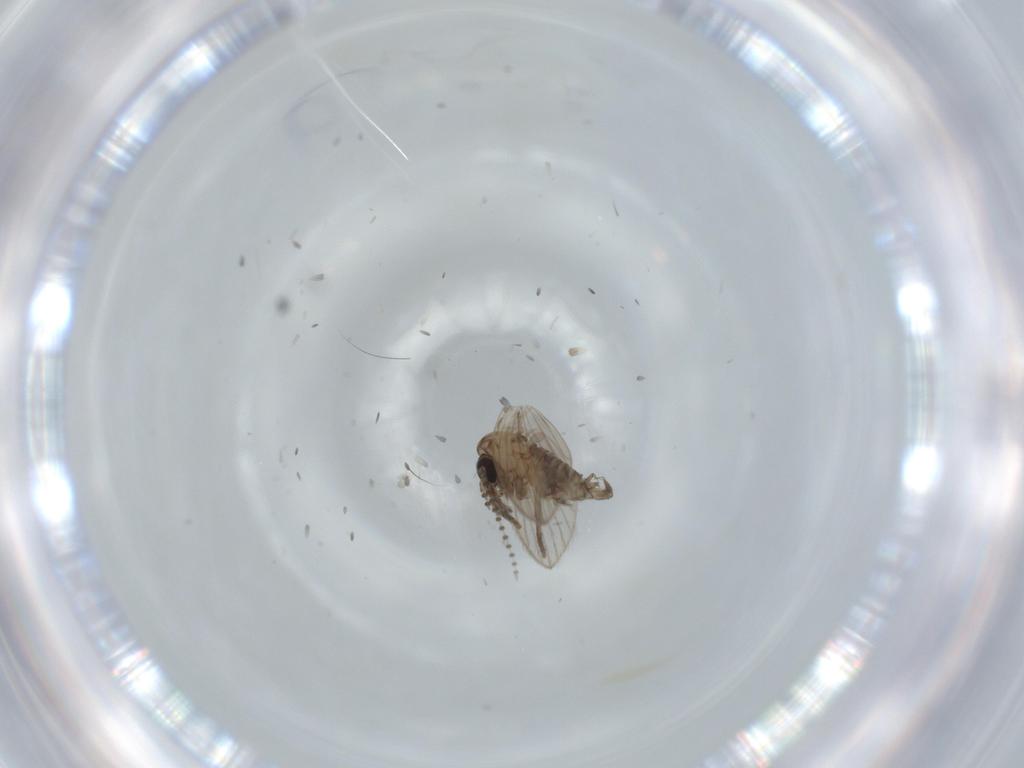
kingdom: Animalia
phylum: Arthropoda
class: Insecta
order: Diptera
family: Psychodidae
